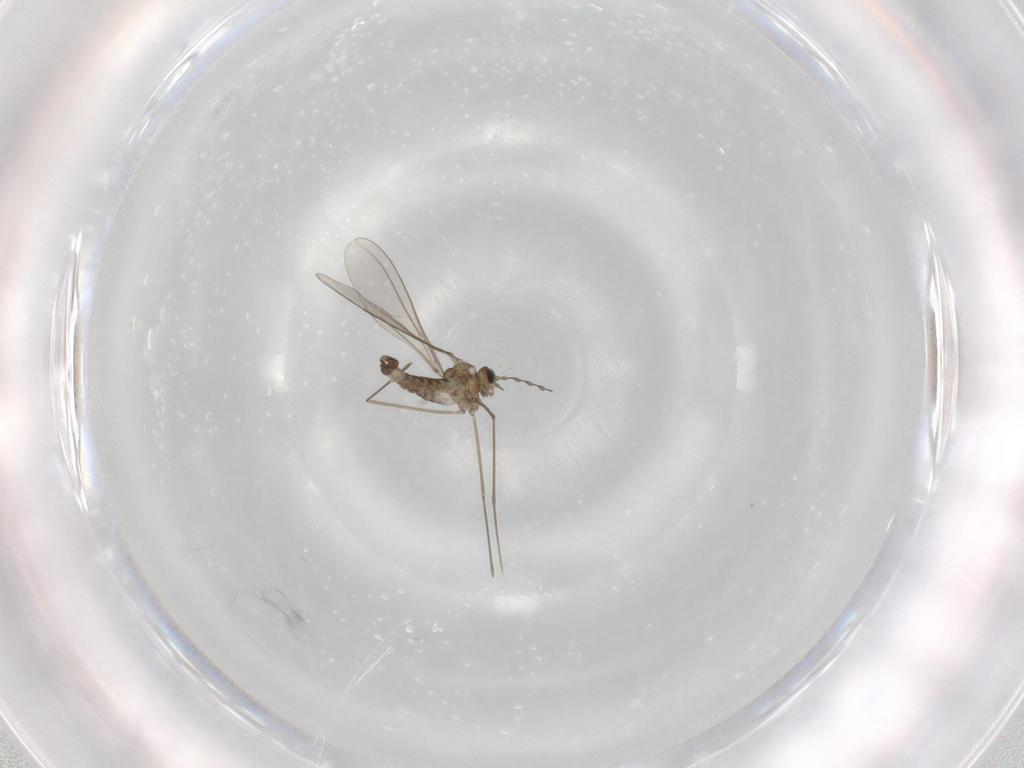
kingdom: Animalia
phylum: Arthropoda
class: Insecta
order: Diptera
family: Cecidomyiidae
